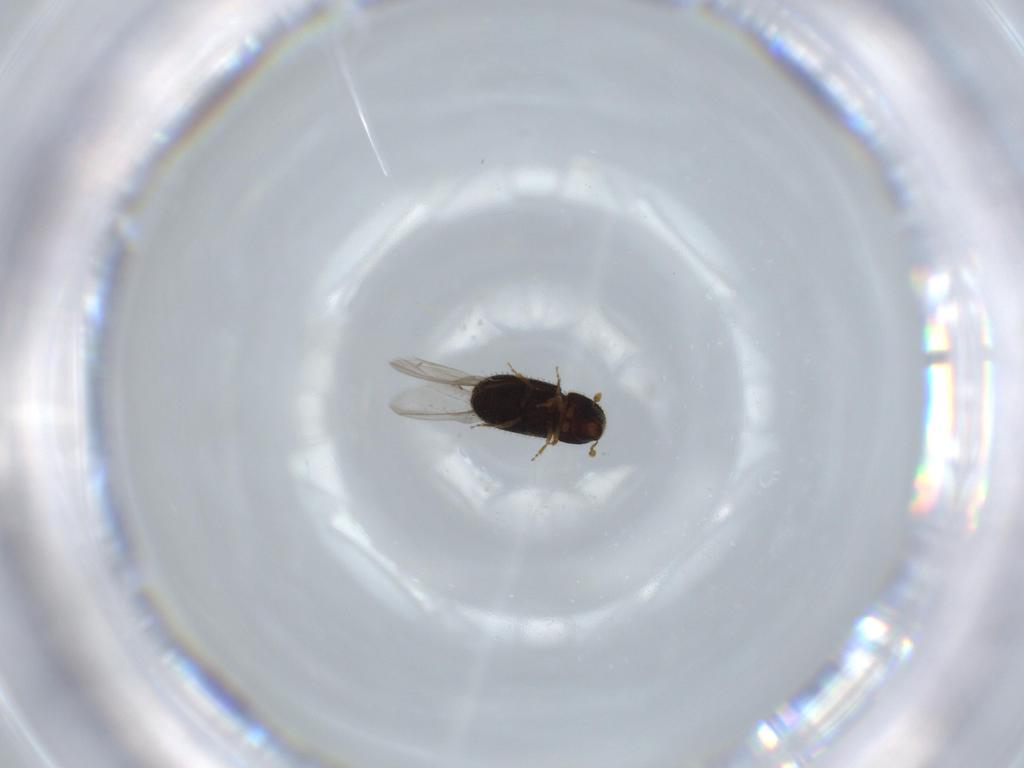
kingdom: Animalia
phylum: Arthropoda
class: Insecta
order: Coleoptera
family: Curculionidae
